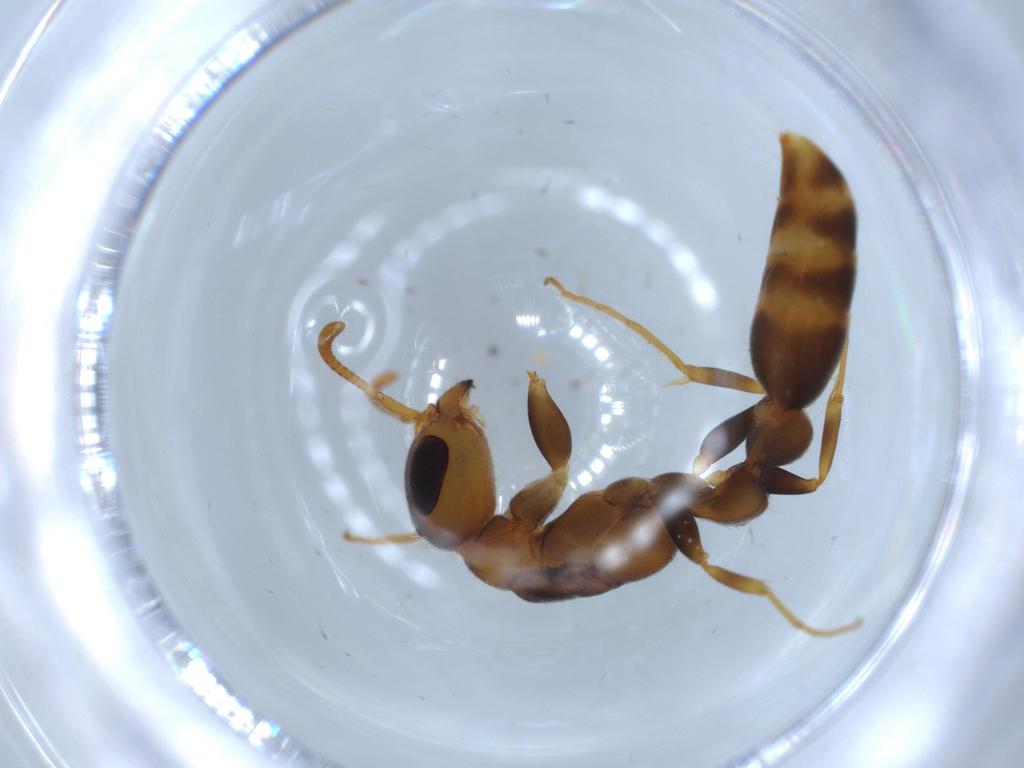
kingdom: Animalia
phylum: Arthropoda
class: Insecta
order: Hymenoptera
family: Formicidae
